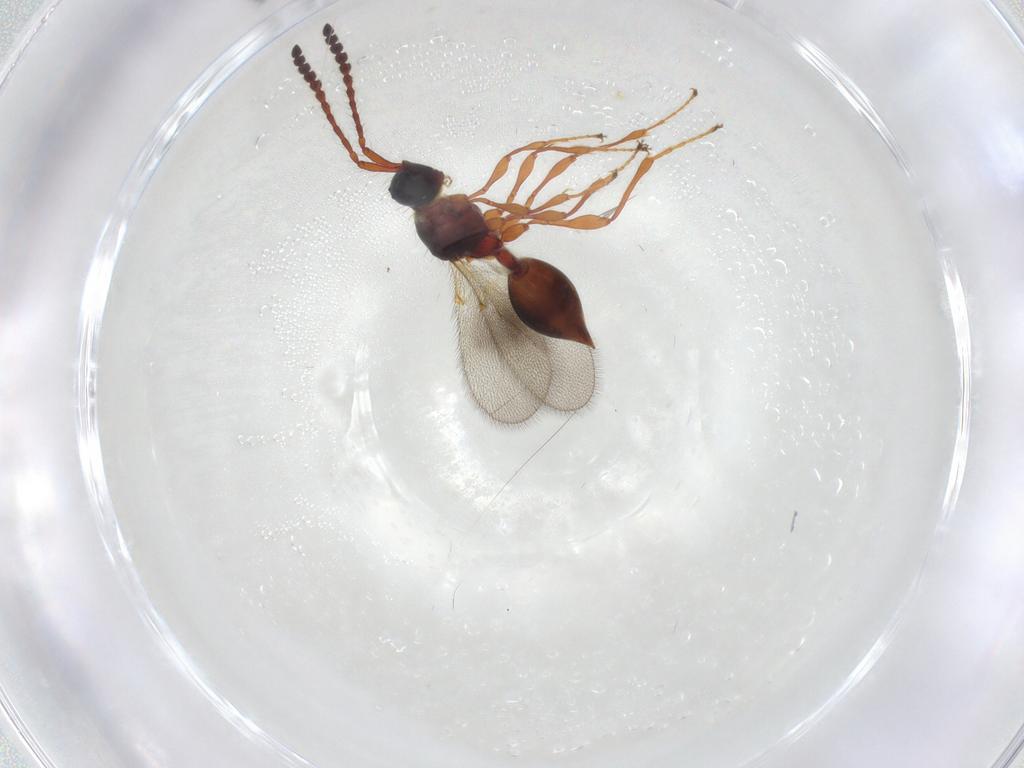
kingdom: Animalia
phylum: Arthropoda
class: Insecta
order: Hymenoptera
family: Diapriidae
